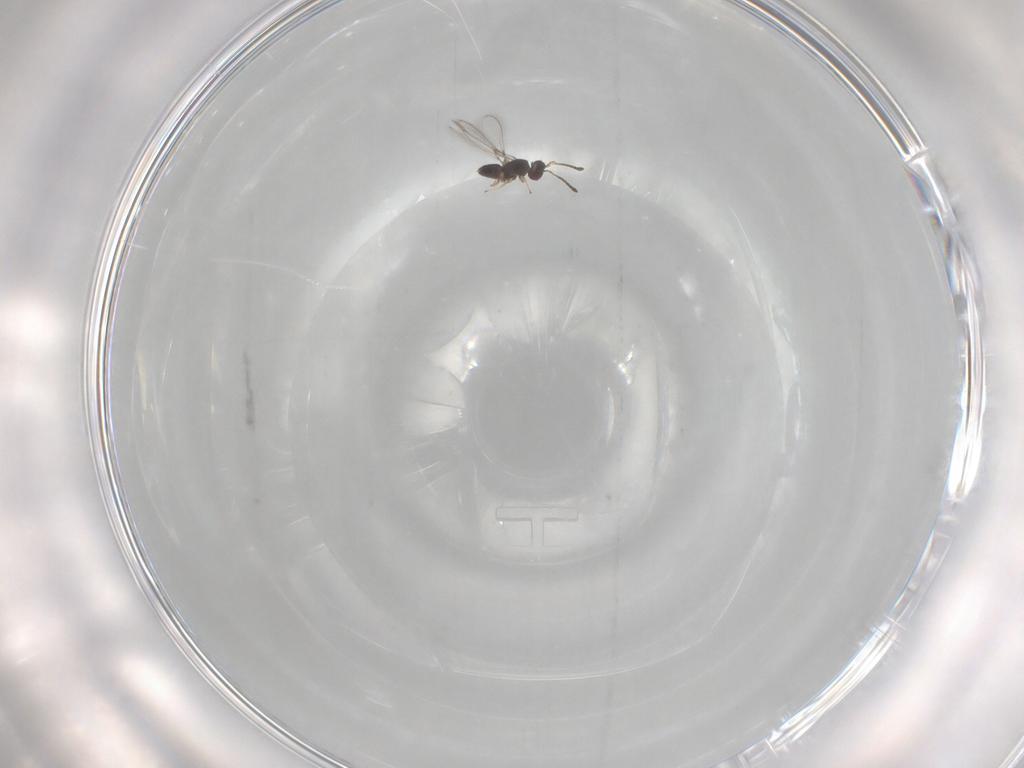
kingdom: Animalia
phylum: Arthropoda
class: Insecta
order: Hymenoptera
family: Mymaridae
